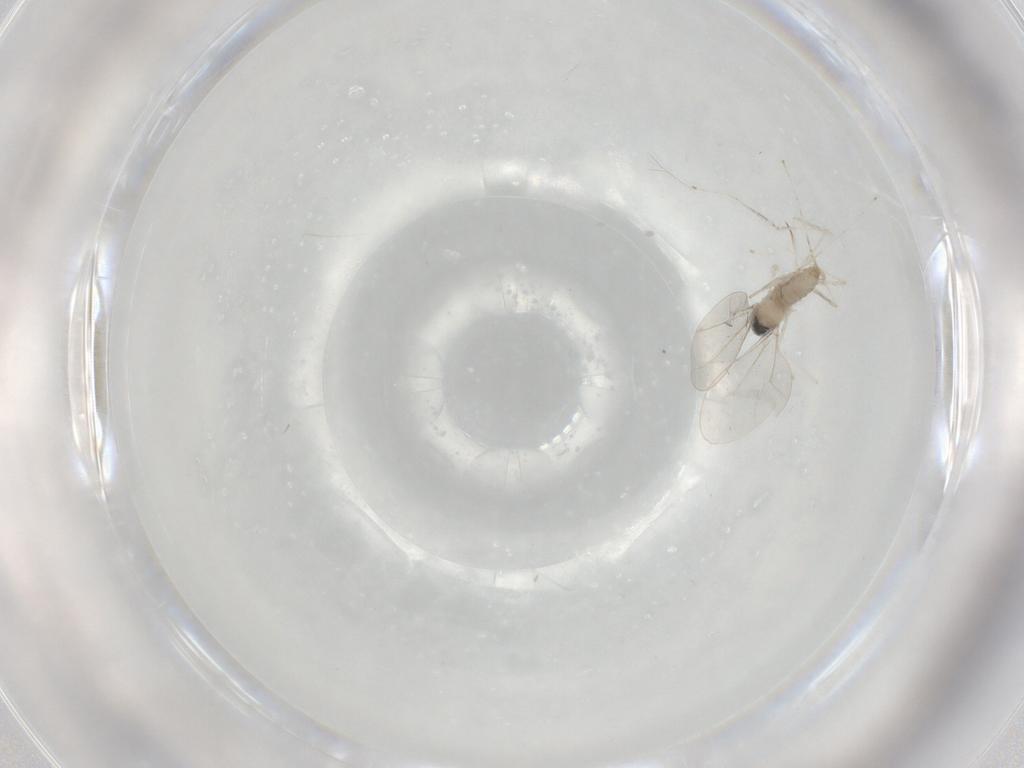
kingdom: Animalia
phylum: Arthropoda
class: Insecta
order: Diptera
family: Cecidomyiidae
